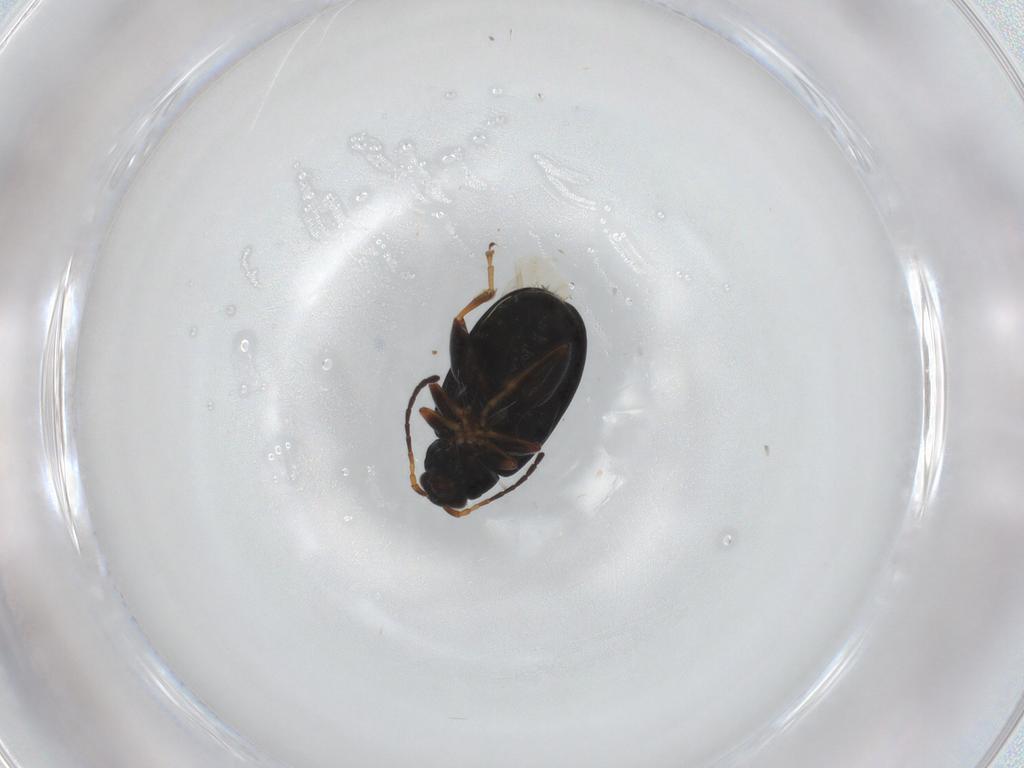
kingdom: Animalia
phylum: Arthropoda
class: Insecta
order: Coleoptera
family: Chrysomelidae
